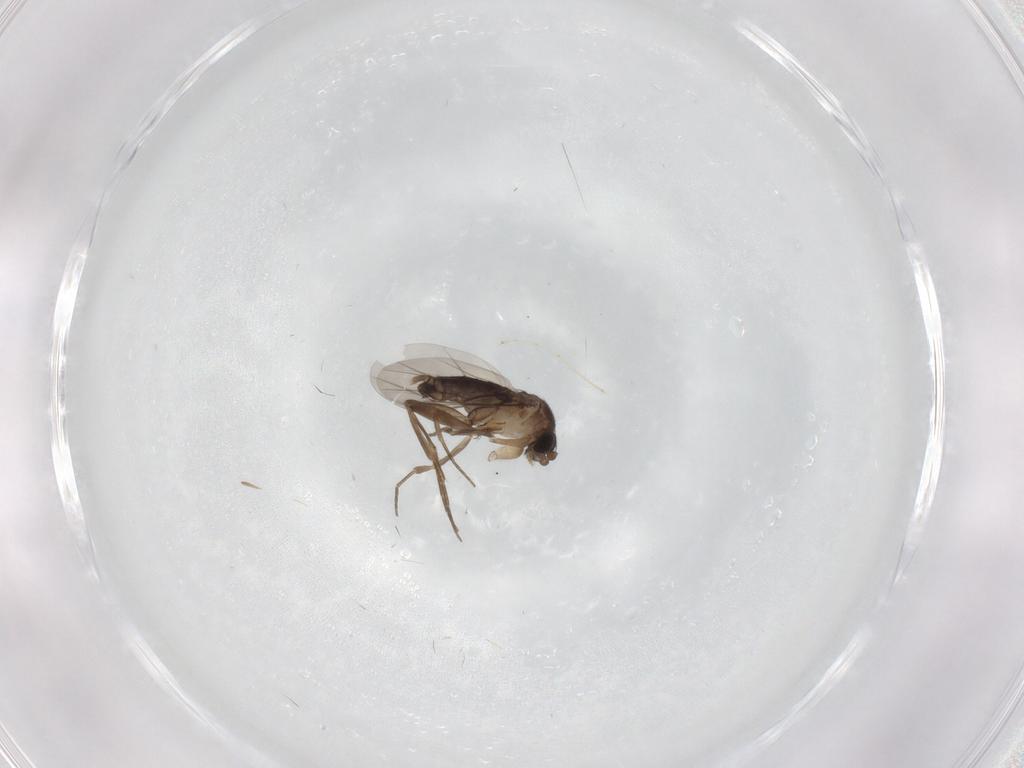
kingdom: Animalia
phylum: Arthropoda
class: Insecta
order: Diptera
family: Phoridae
